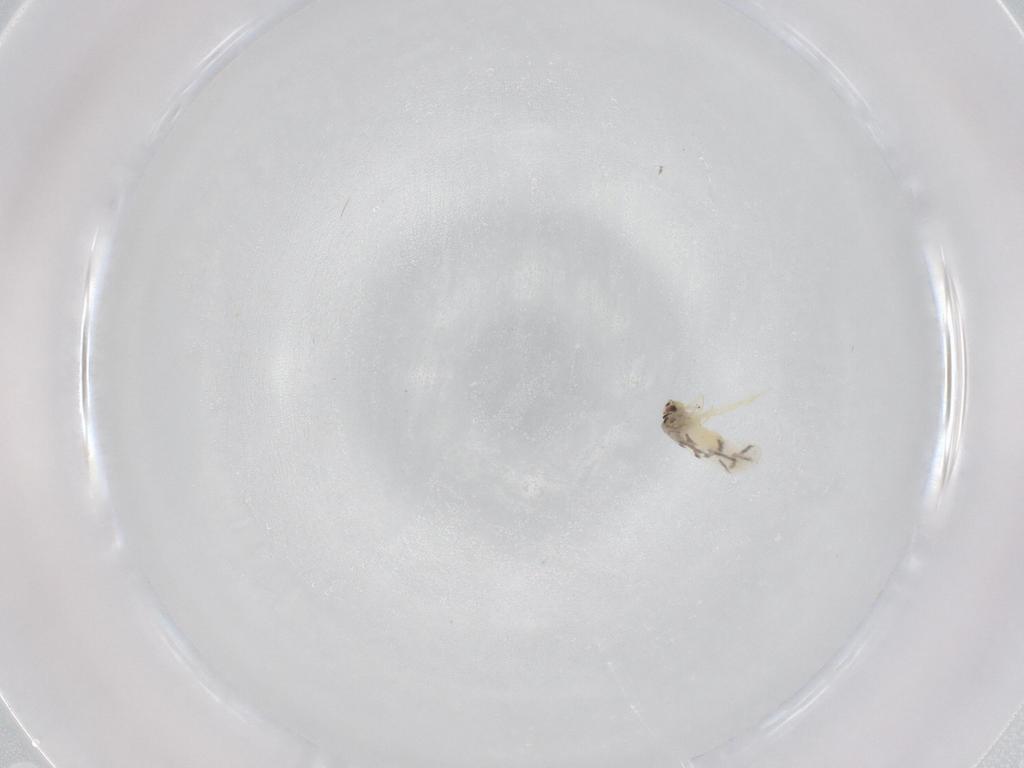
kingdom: Animalia
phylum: Arthropoda
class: Insecta
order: Hemiptera
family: Aleyrodidae
